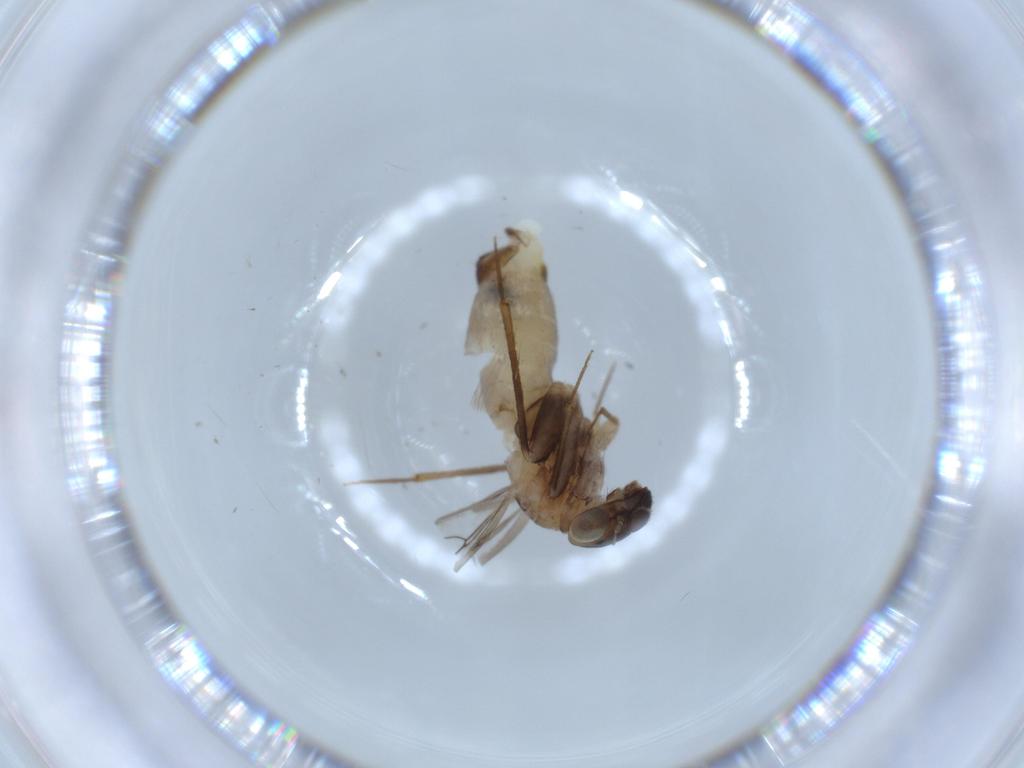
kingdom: Animalia
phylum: Arthropoda
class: Insecta
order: Psocodea
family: Lepidopsocidae
